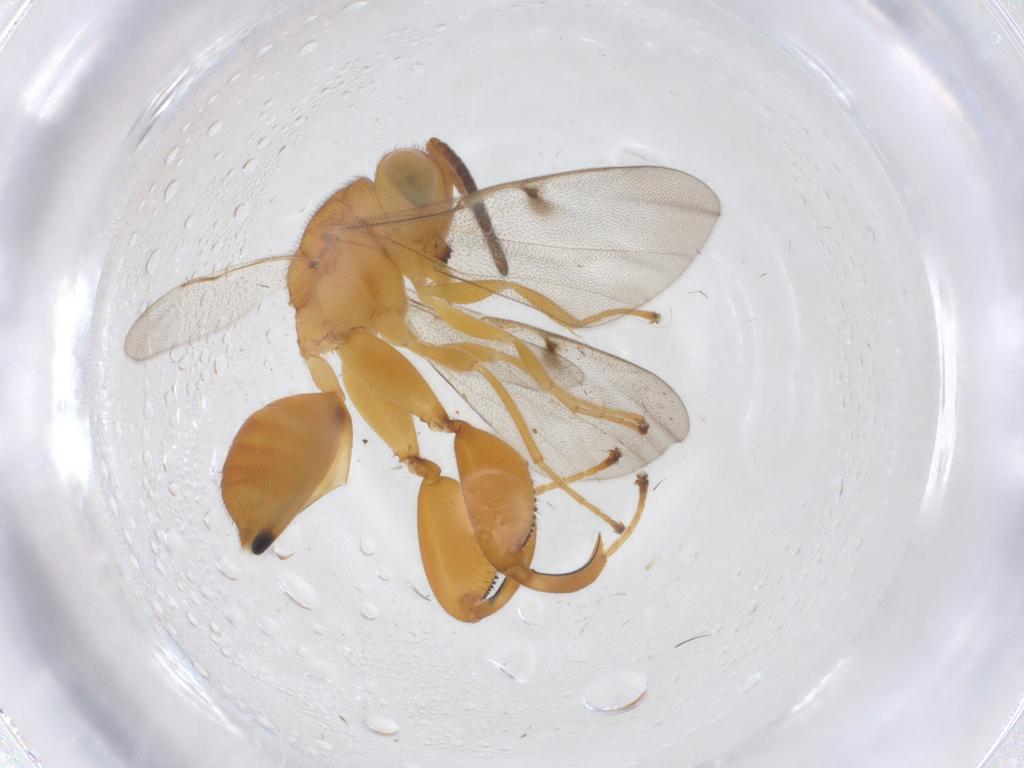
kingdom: Animalia
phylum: Arthropoda
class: Insecta
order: Hymenoptera
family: Chalcididae
